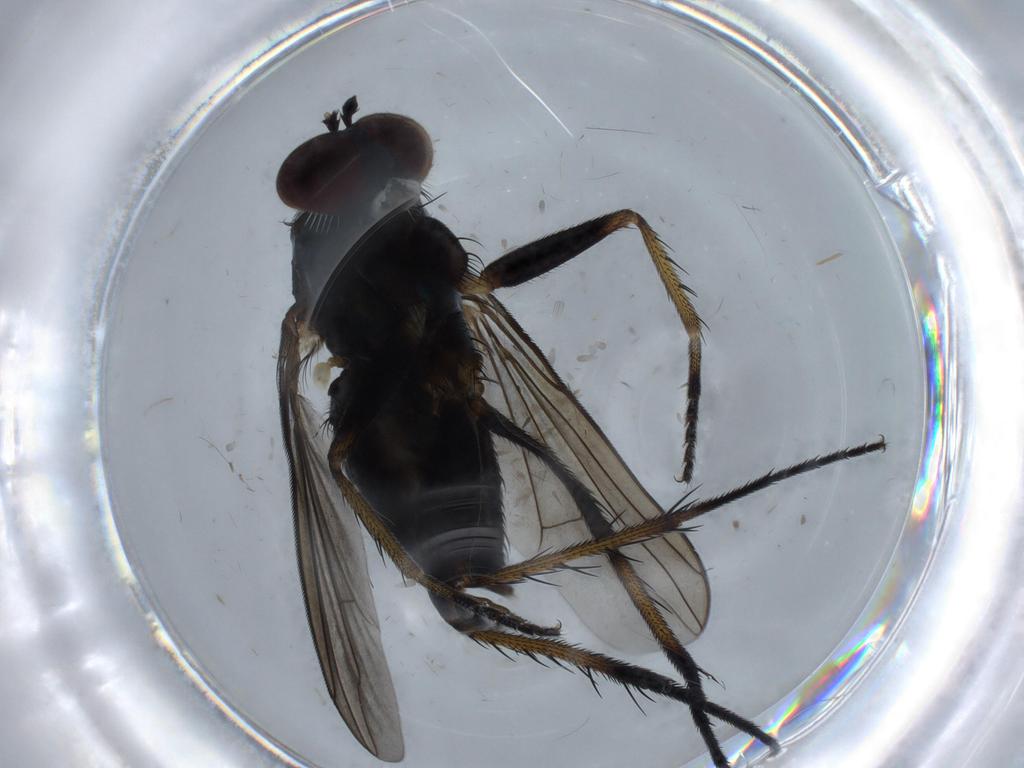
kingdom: Animalia
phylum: Arthropoda
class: Insecta
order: Diptera
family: Dolichopodidae
